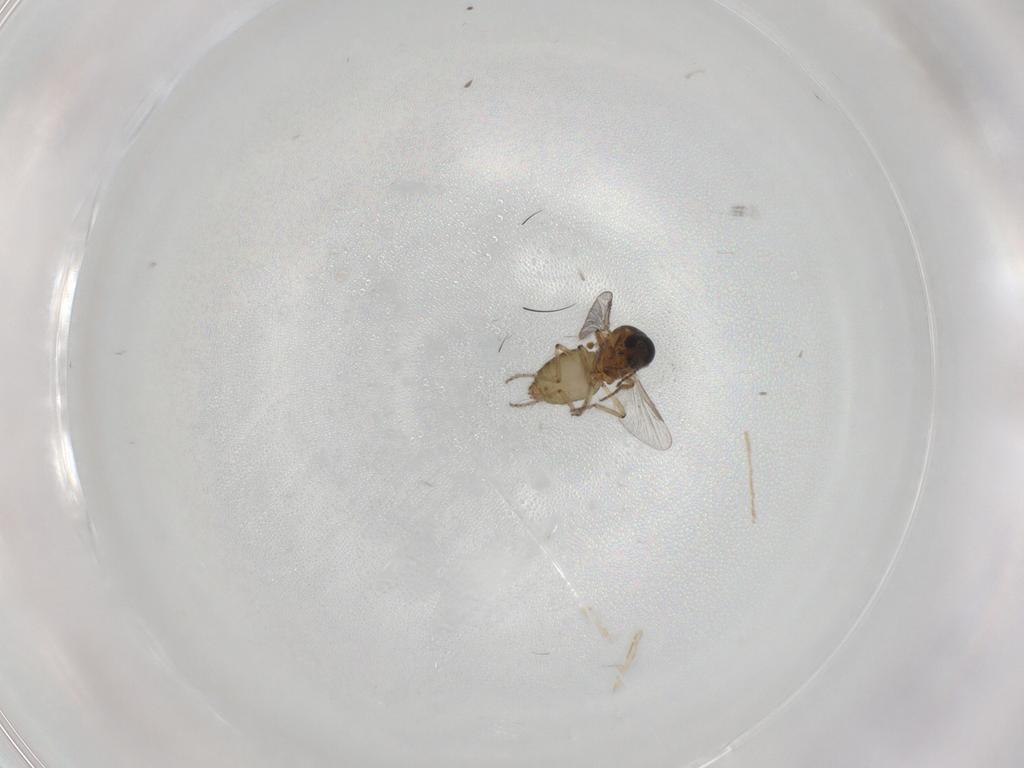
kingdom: Animalia
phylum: Arthropoda
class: Insecta
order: Diptera
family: Ceratopogonidae
